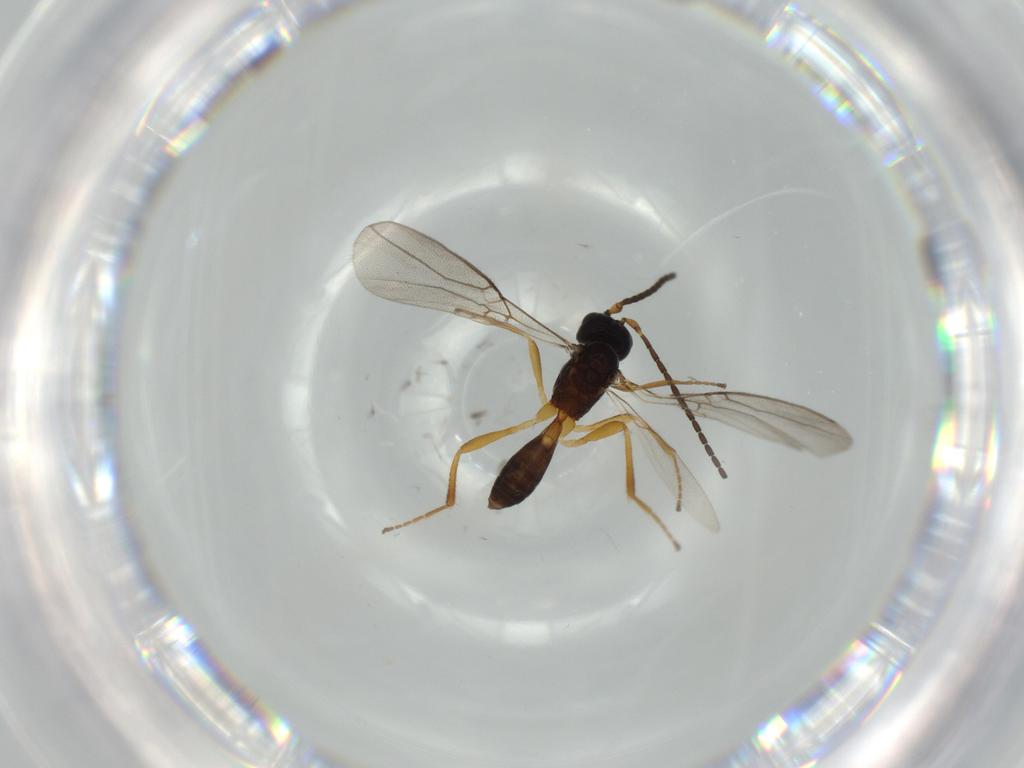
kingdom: Animalia
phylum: Arthropoda
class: Insecta
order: Hymenoptera
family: Braconidae
